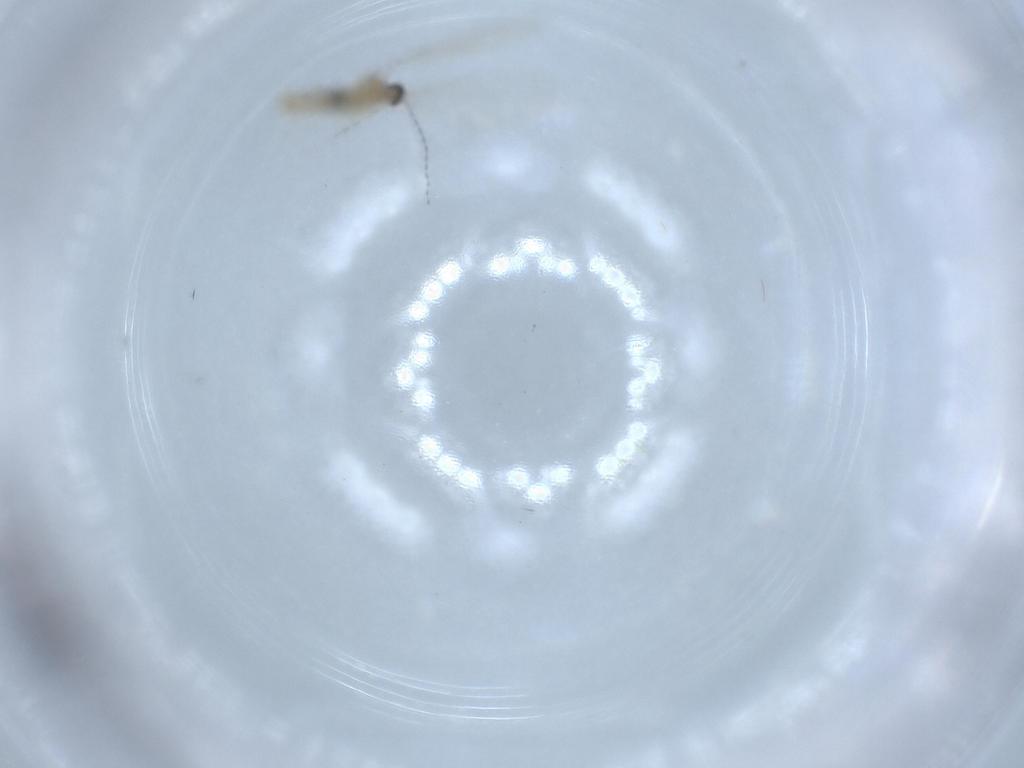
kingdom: Animalia
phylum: Arthropoda
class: Insecta
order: Diptera
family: Cecidomyiidae
